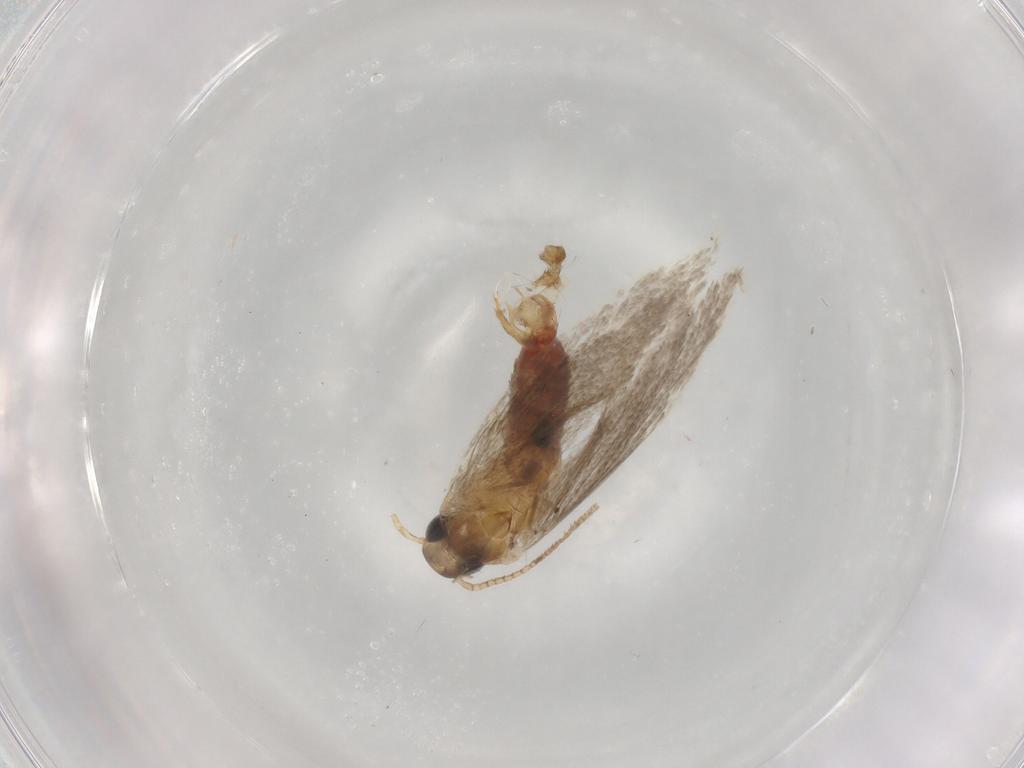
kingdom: Animalia
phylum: Arthropoda
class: Insecta
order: Lepidoptera
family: Gelechiidae
